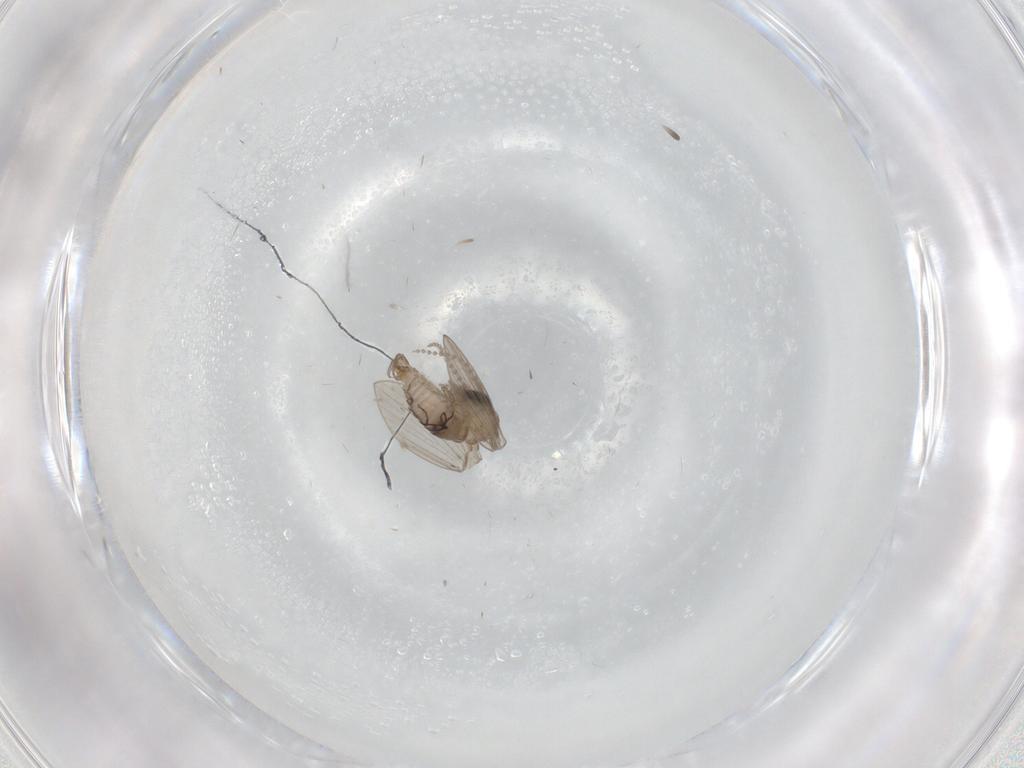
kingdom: Animalia
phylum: Arthropoda
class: Insecta
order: Diptera
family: Psychodidae
